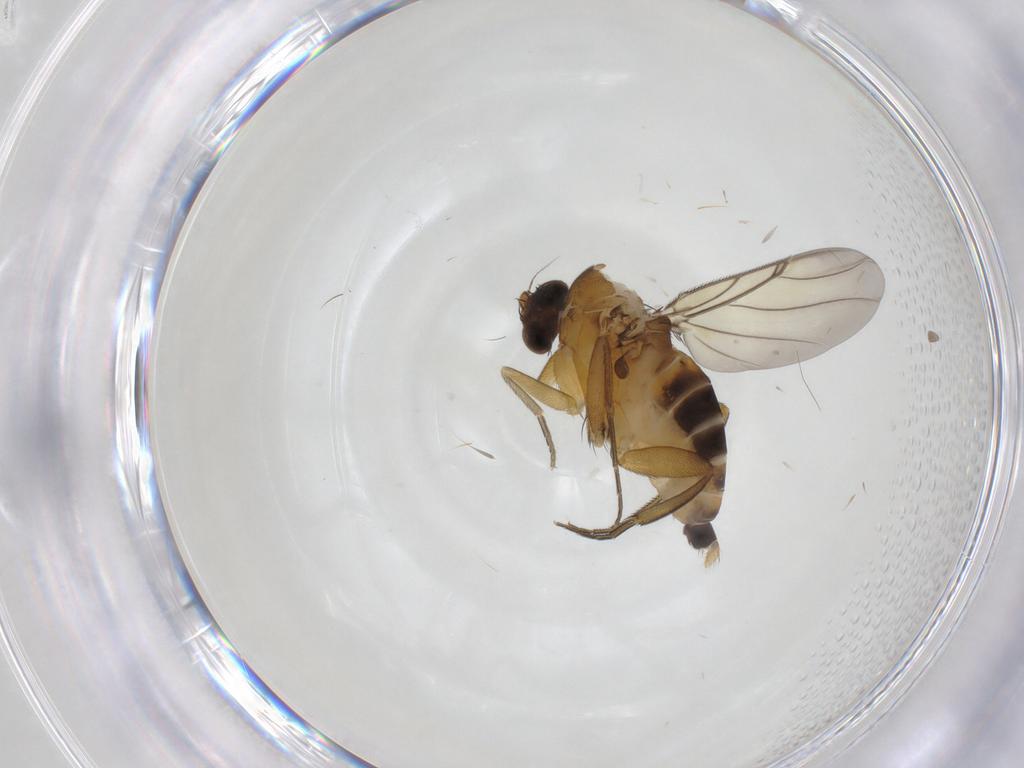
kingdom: Animalia
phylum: Arthropoda
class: Insecta
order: Diptera
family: Phoridae
